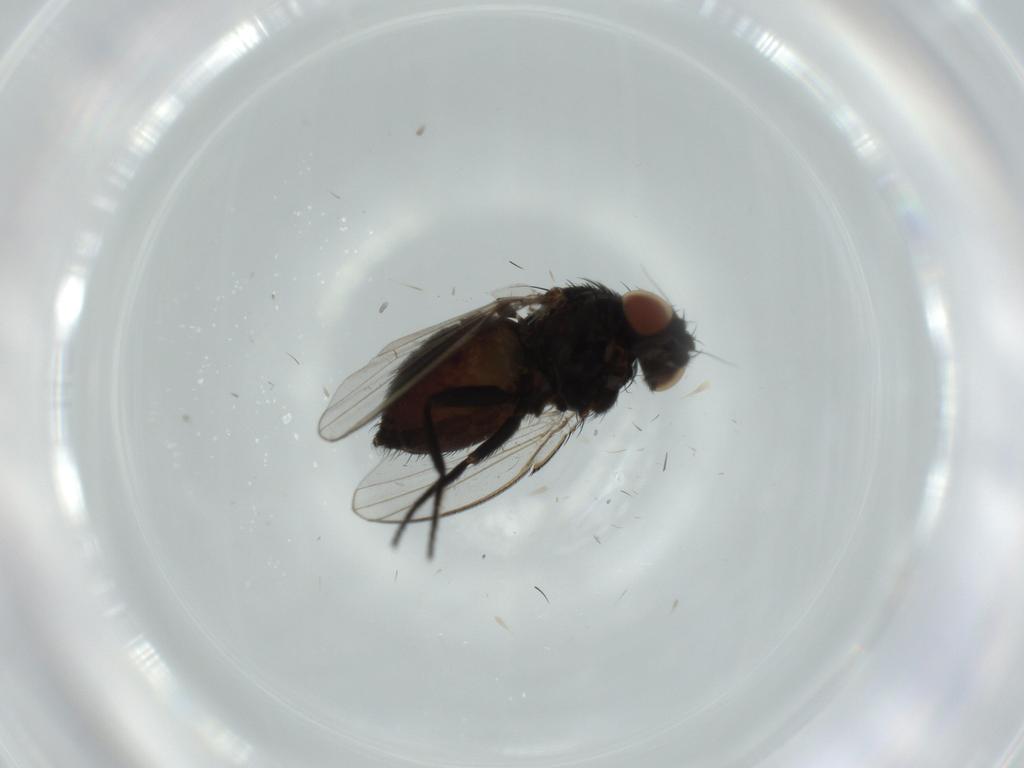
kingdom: Animalia
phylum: Arthropoda
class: Insecta
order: Diptera
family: Milichiidae
